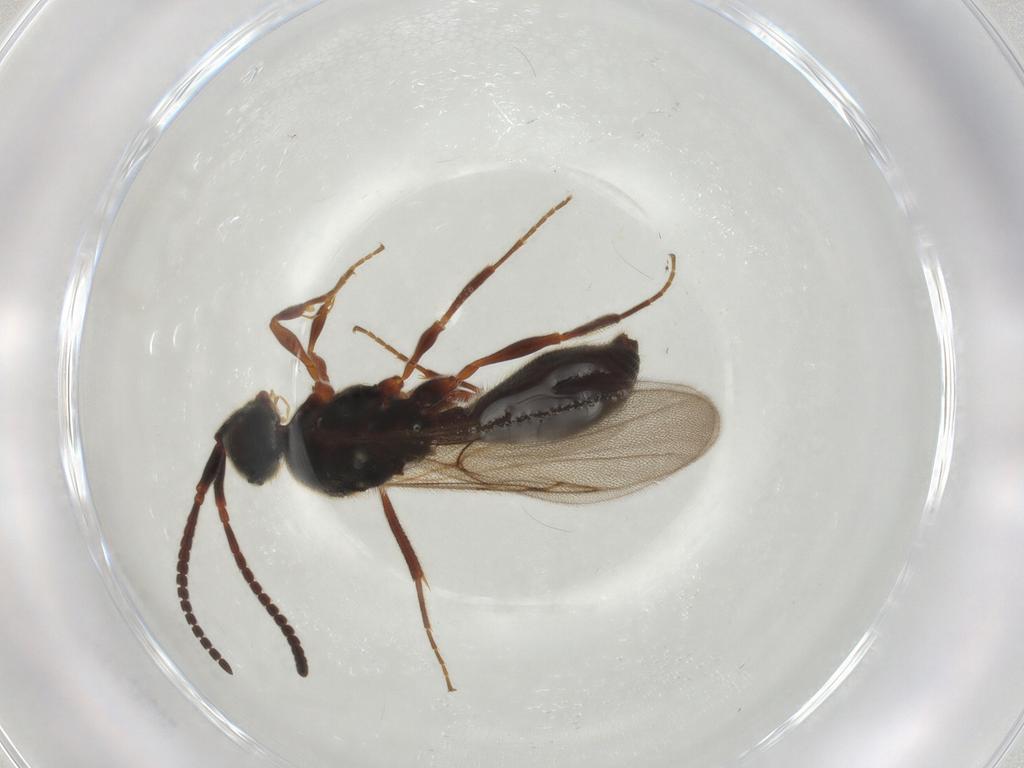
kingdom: Animalia
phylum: Arthropoda
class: Insecta
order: Hymenoptera
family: Diapriidae
